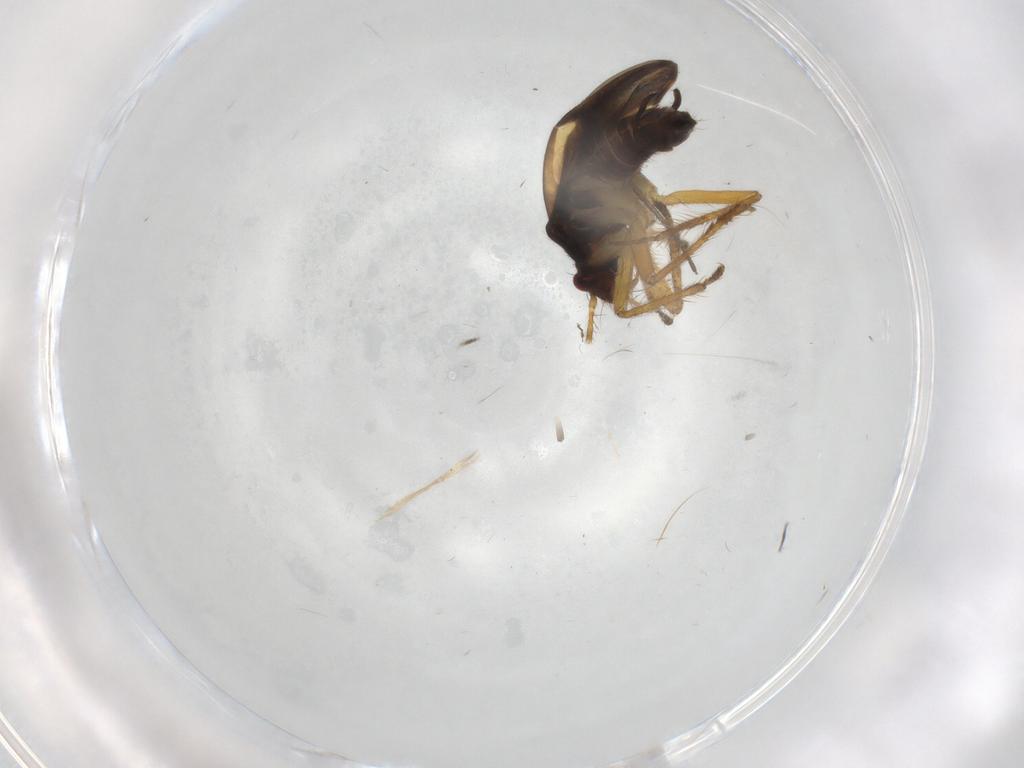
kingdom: Animalia
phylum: Arthropoda
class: Insecta
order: Hemiptera
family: Ceratocombidae
